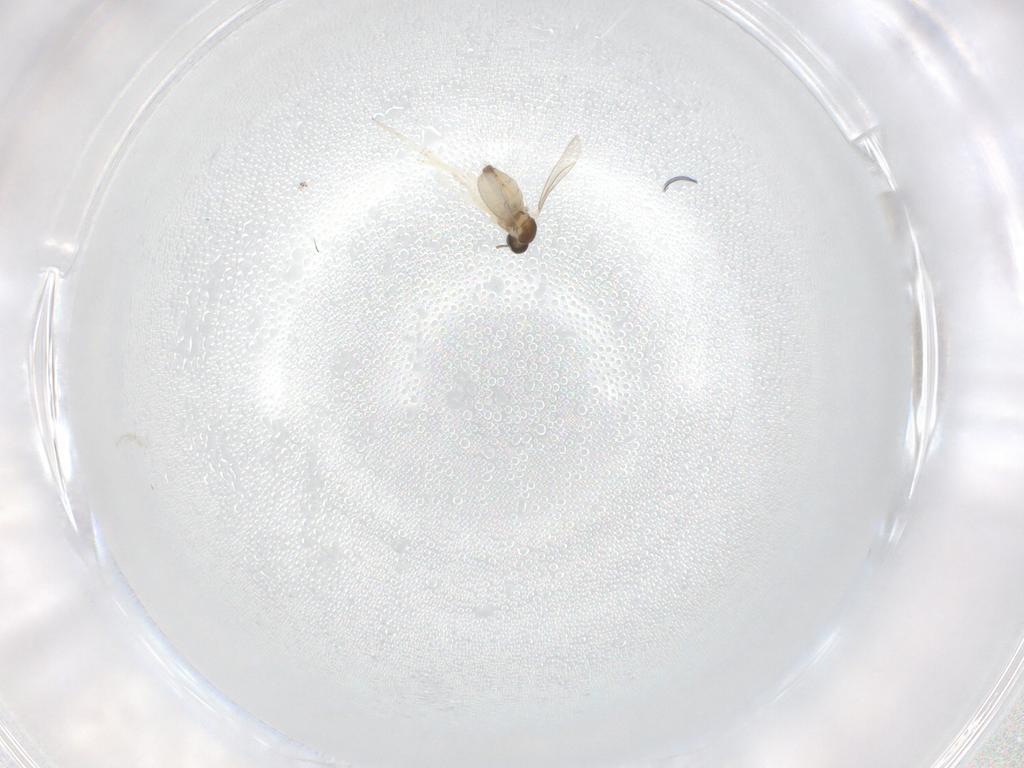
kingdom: Animalia
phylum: Arthropoda
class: Insecta
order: Diptera
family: Cecidomyiidae
